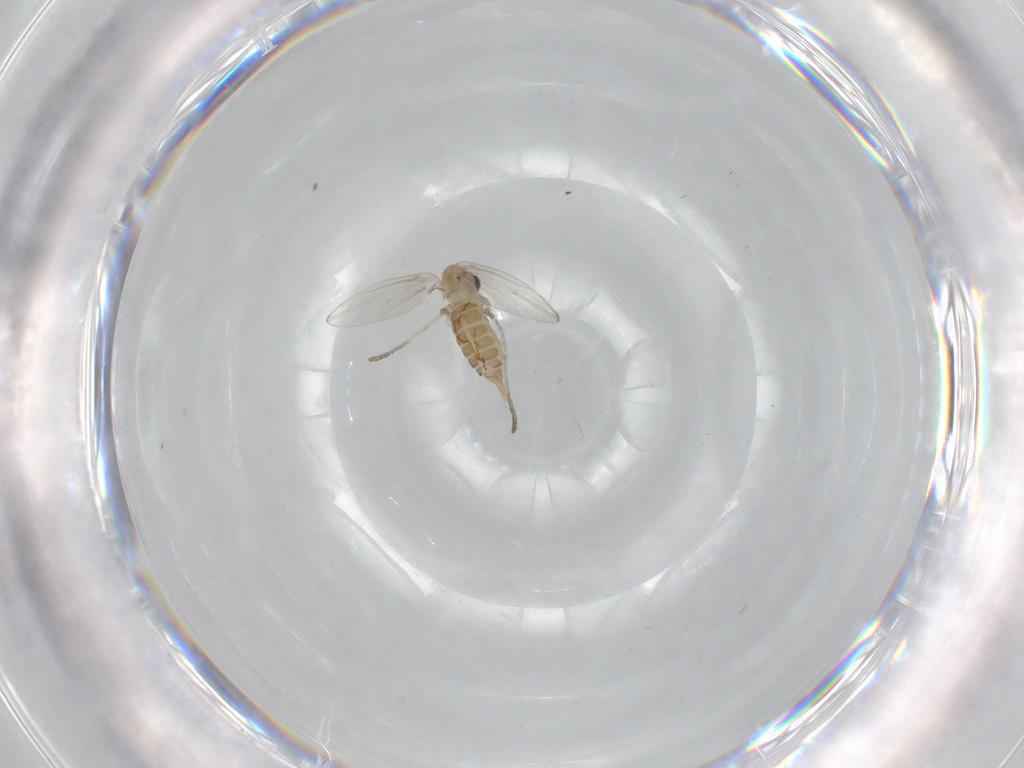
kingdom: Animalia
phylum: Arthropoda
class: Insecta
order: Diptera
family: Psychodidae
